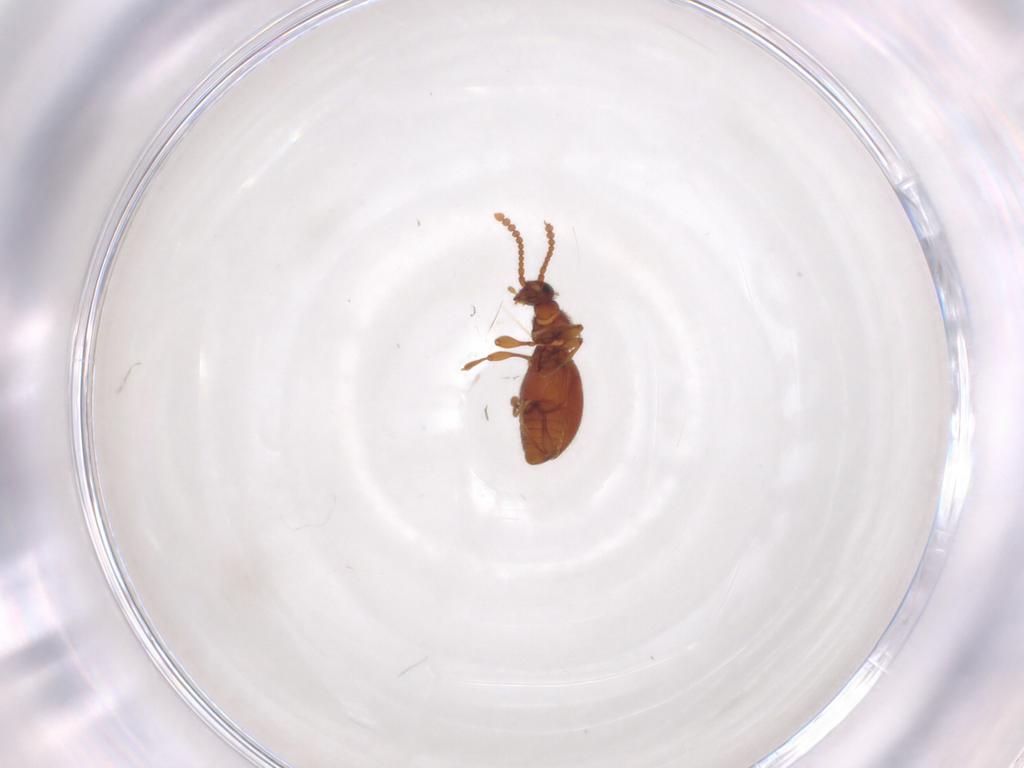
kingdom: Animalia
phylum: Arthropoda
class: Insecta
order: Coleoptera
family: Staphylinidae
